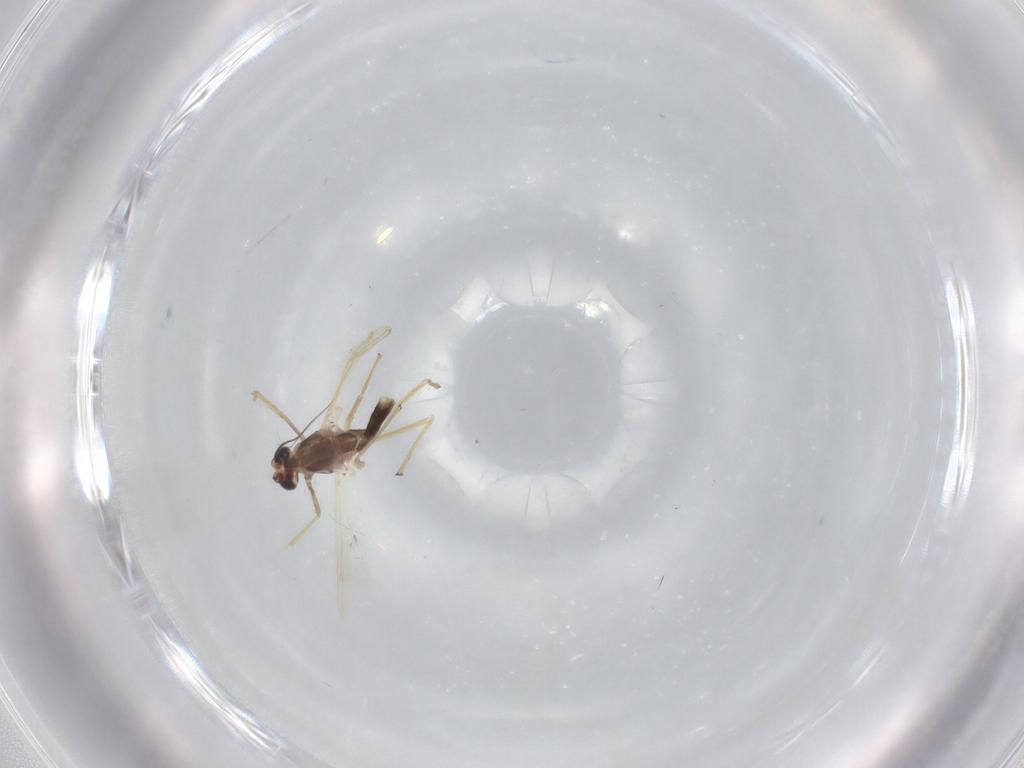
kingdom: Animalia
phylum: Arthropoda
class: Insecta
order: Diptera
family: Chironomidae
